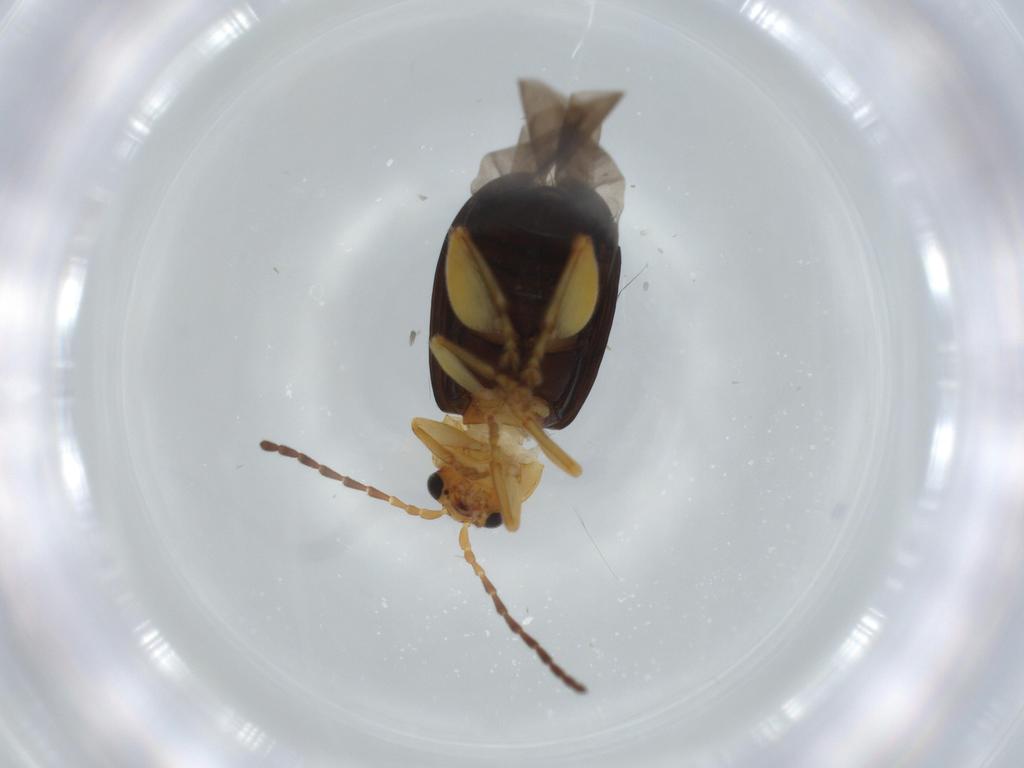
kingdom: Animalia
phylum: Arthropoda
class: Insecta
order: Coleoptera
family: Chrysomelidae
